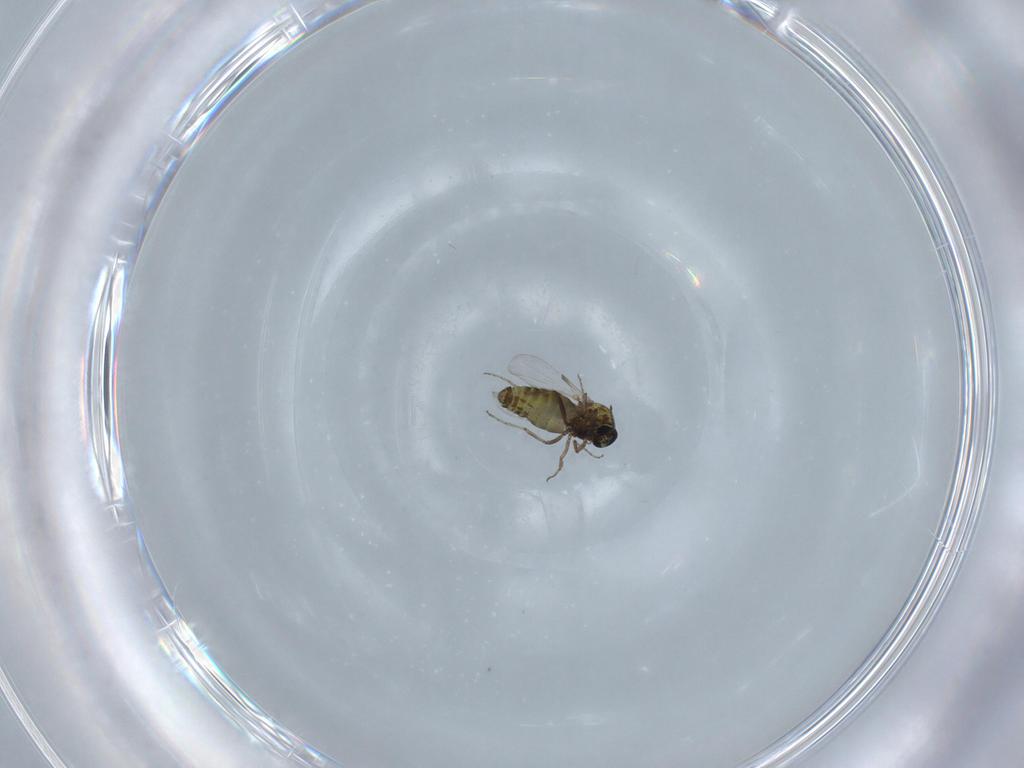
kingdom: Animalia
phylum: Arthropoda
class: Insecta
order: Diptera
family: Ceratopogonidae
